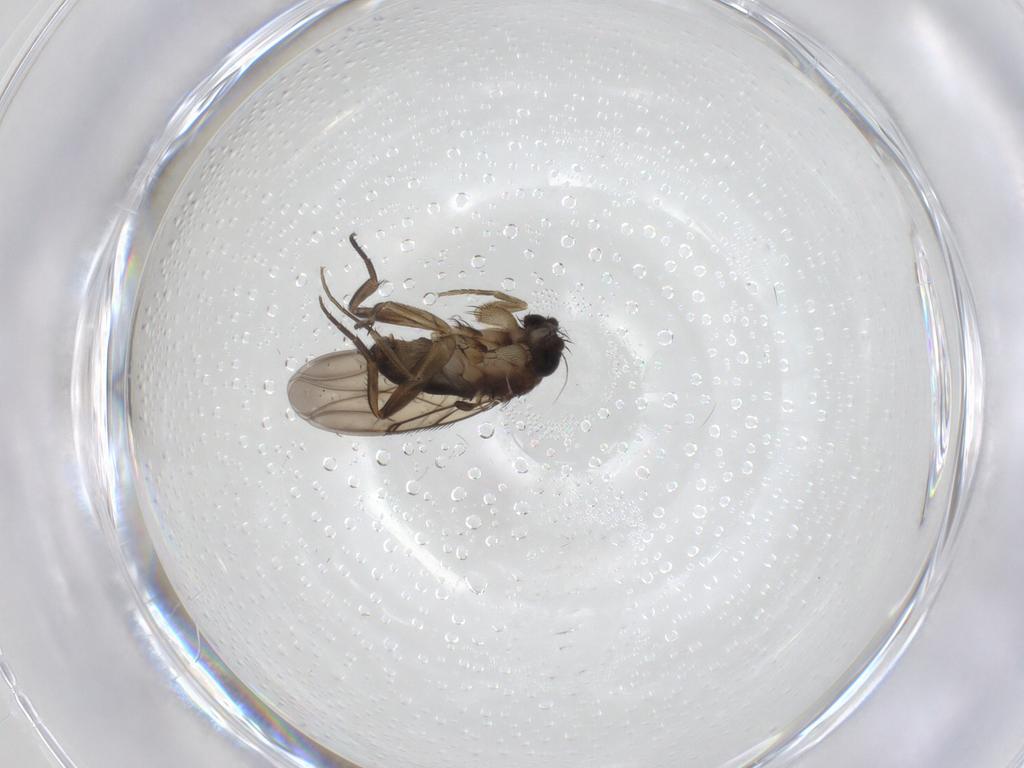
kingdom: Animalia
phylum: Arthropoda
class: Insecta
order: Diptera
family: Phoridae
